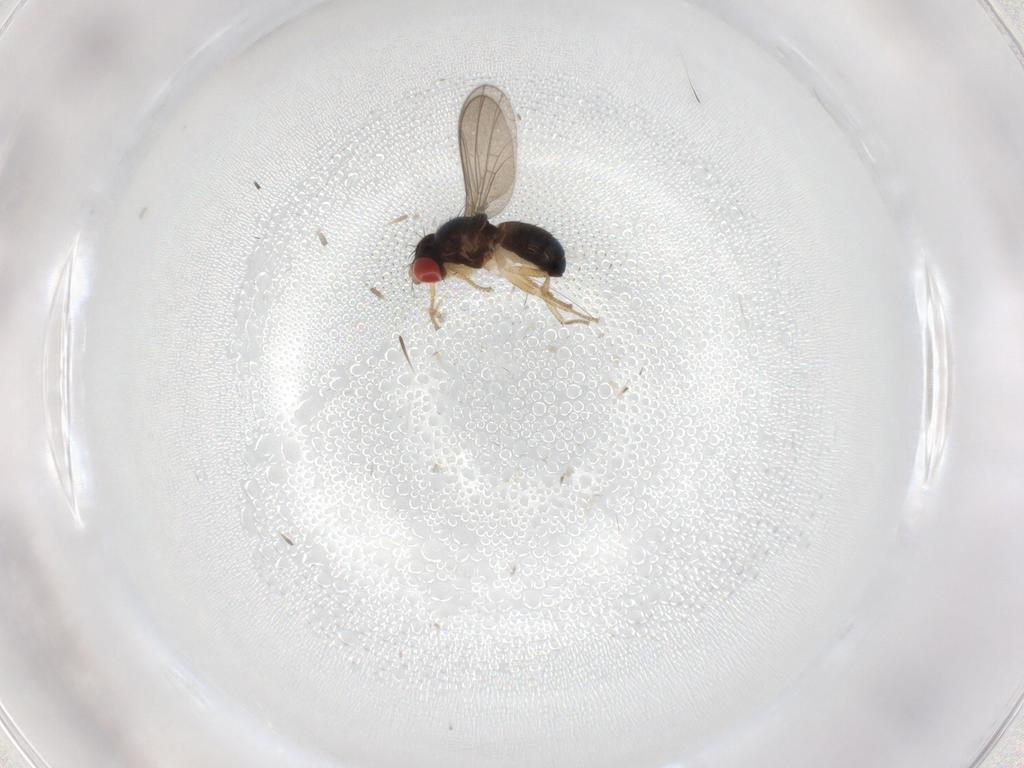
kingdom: Animalia
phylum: Arthropoda
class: Insecta
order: Diptera
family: Drosophilidae
